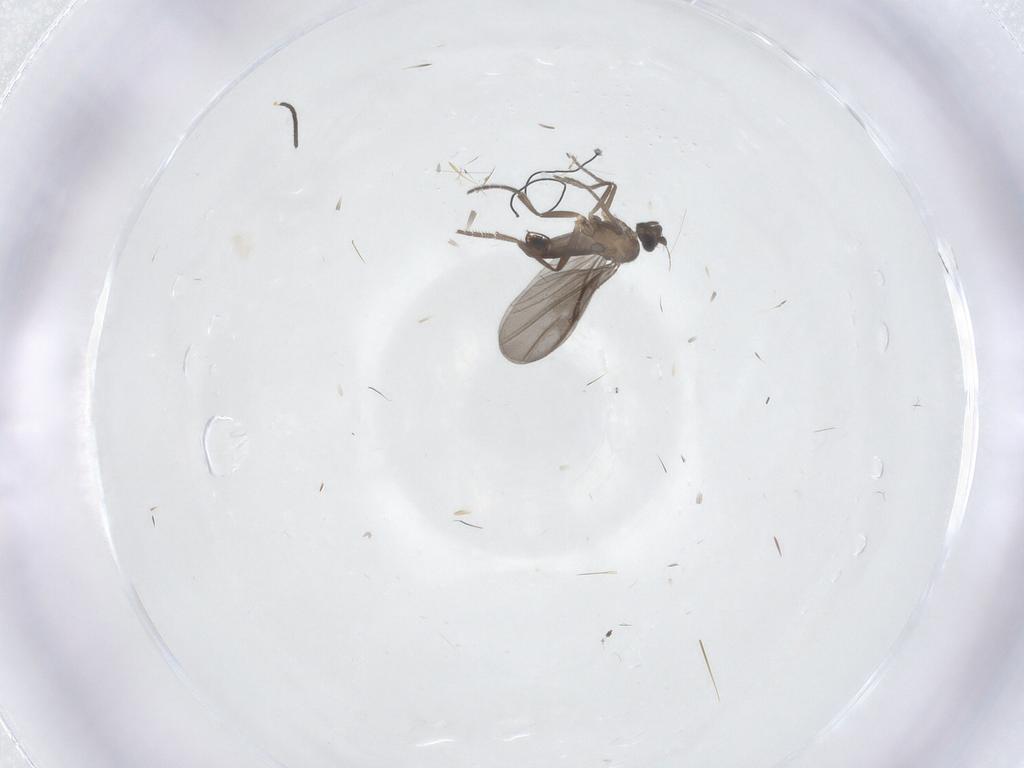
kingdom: Animalia
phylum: Arthropoda
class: Insecta
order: Diptera
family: Phoridae
